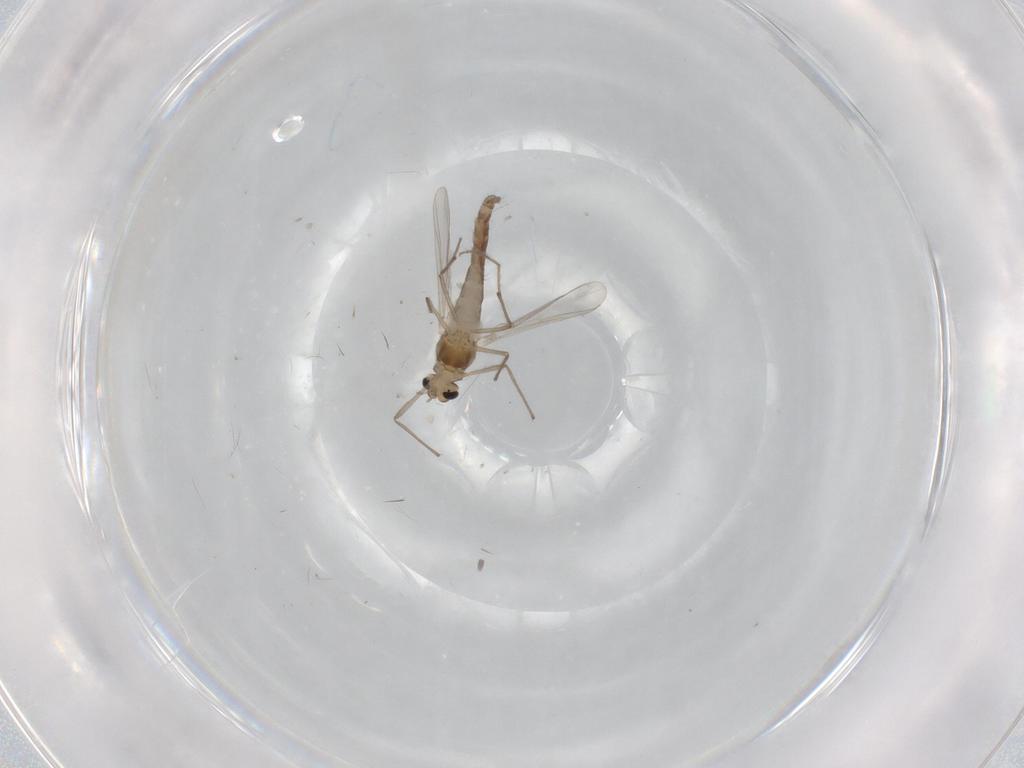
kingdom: Animalia
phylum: Arthropoda
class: Insecta
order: Diptera
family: Chironomidae
